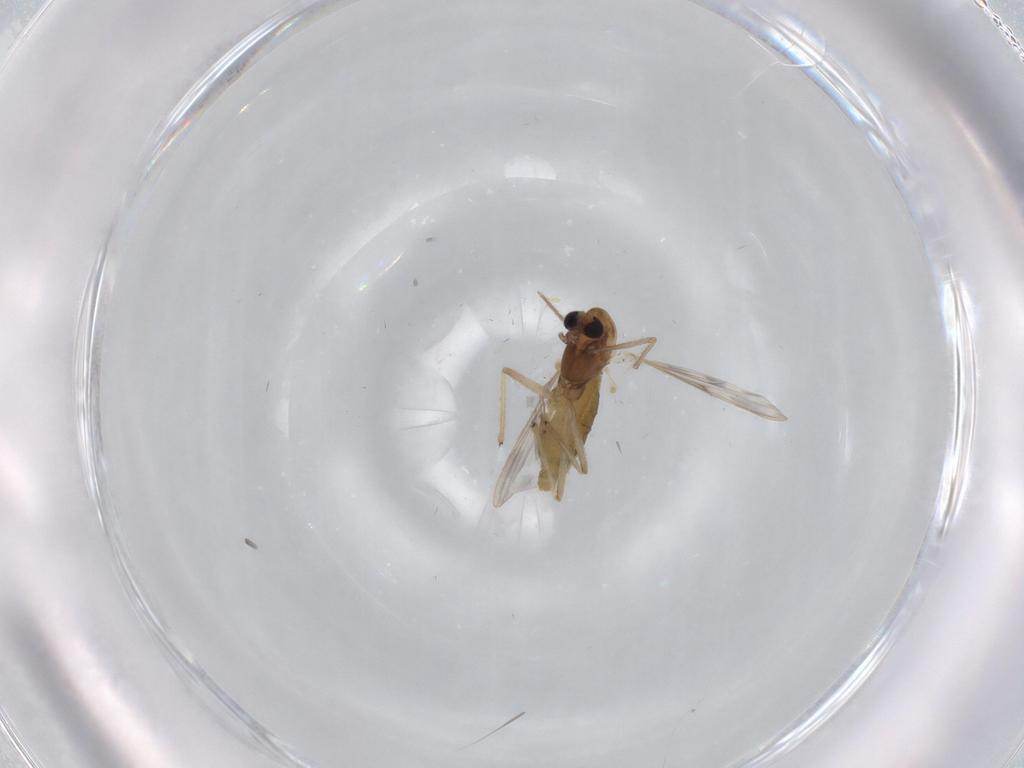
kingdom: Animalia
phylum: Arthropoda
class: Insecta
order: Diptera
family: Chironomidae
